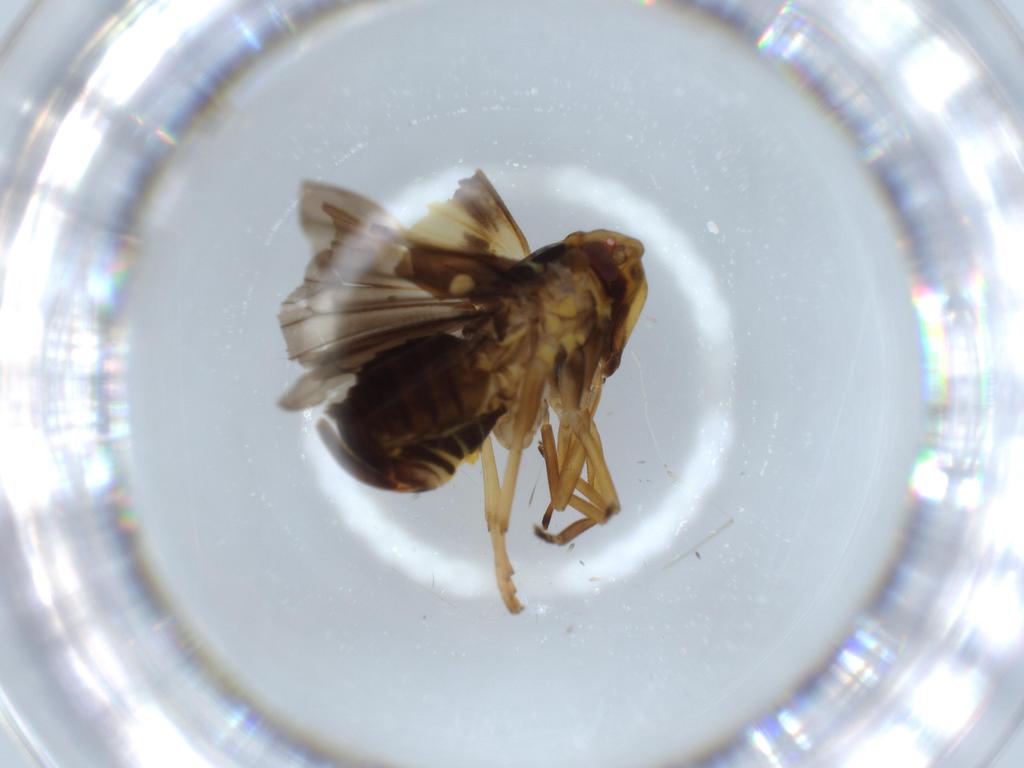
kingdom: Animalia
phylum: Arthropoda
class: Insecta
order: Hemiptera
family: Cixiidae
